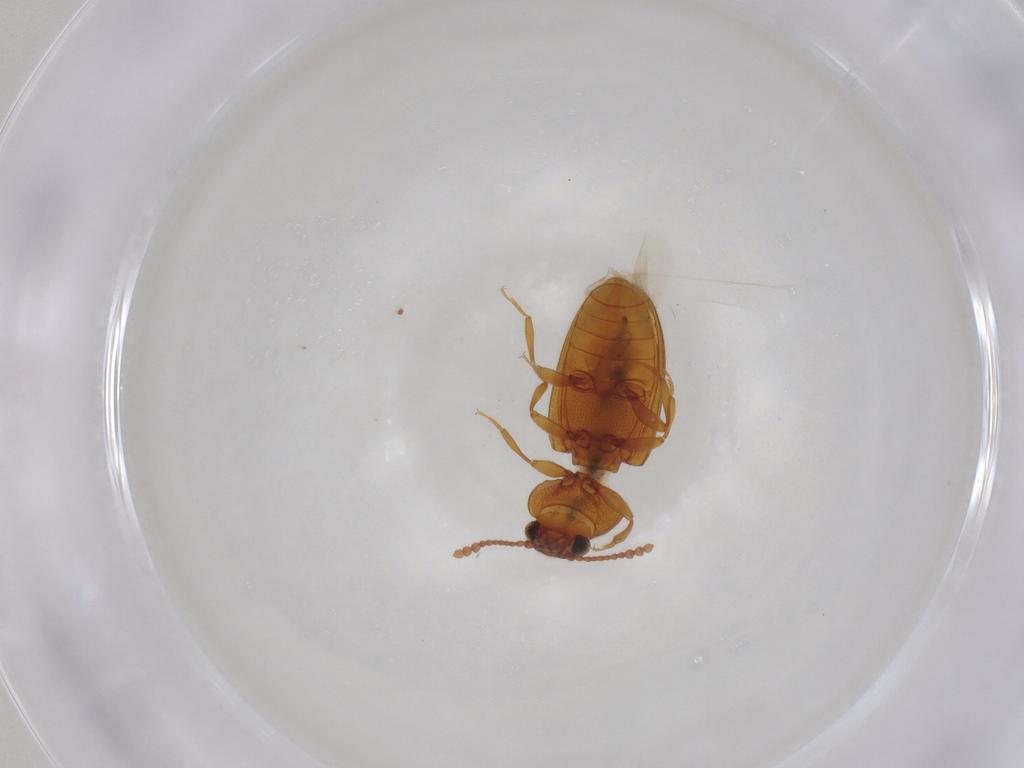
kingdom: Animalia
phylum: Arthropoda
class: Insecta
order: Coleoptera
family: Erotylidae
